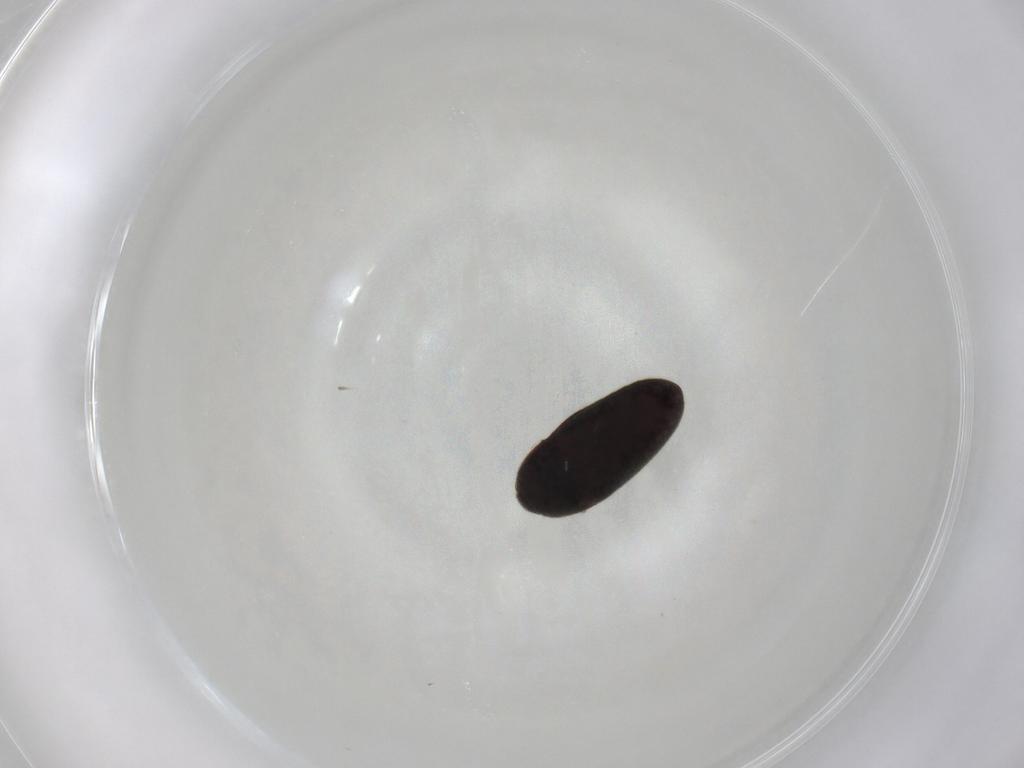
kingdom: Animalia
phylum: Arthropoda
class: Insecta
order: Coleoptera
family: Throscidae
